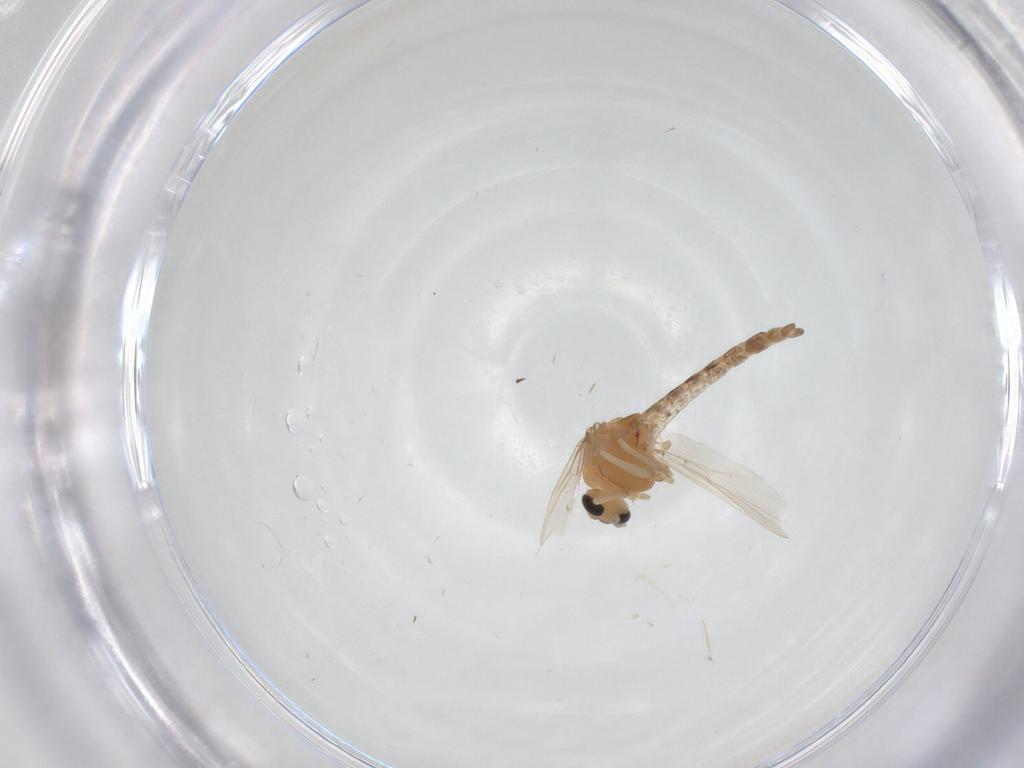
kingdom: Animalia
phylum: Arthropoda
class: Insecta
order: Diptera
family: Chironomidae
